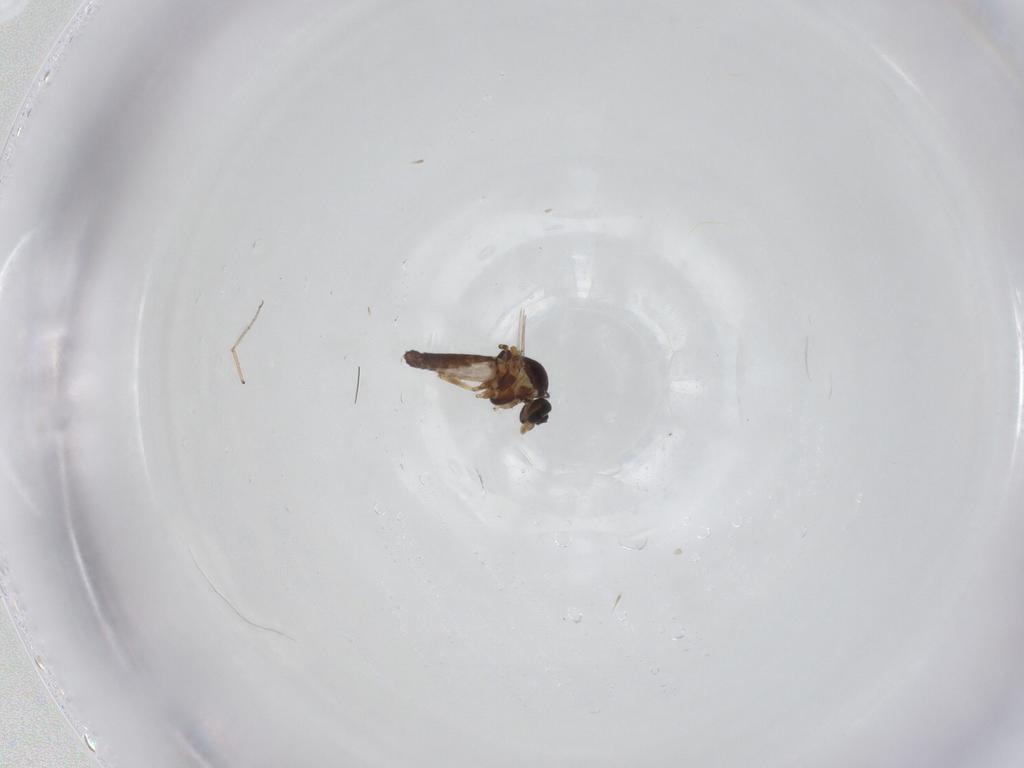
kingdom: Animalia
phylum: Arthropoda
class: Insecta
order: Diptera
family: Ceratopogonidae
